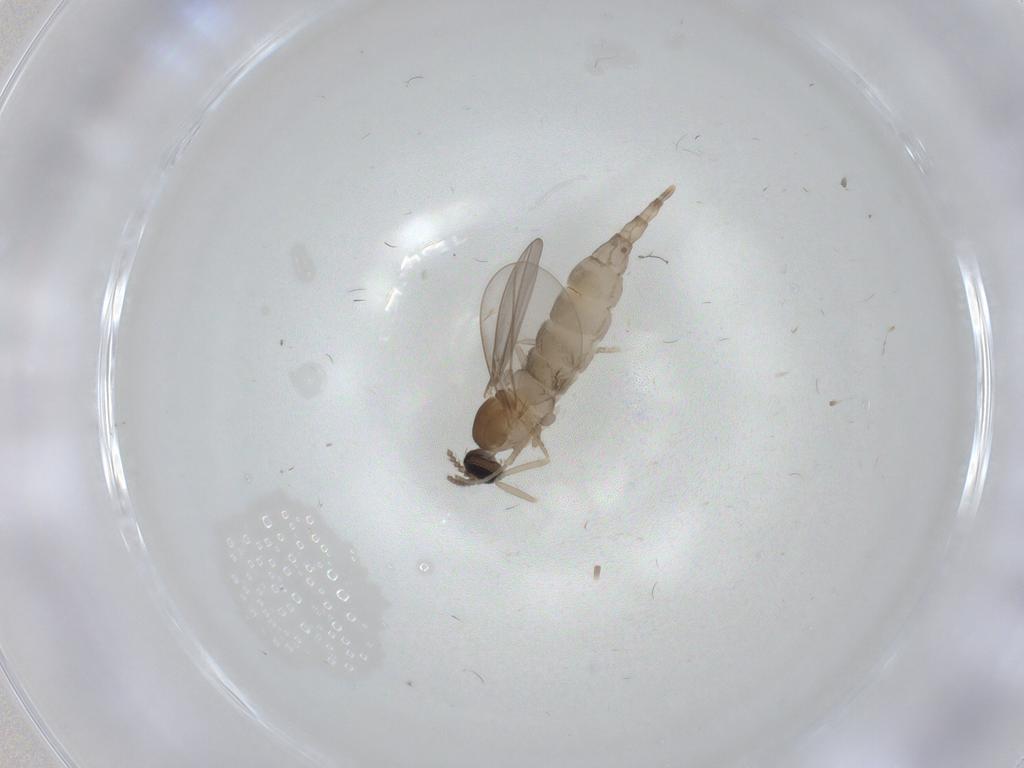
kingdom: Animalia
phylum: Arthropoda
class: Insecta
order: Diptera
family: Cecidomyiidae
